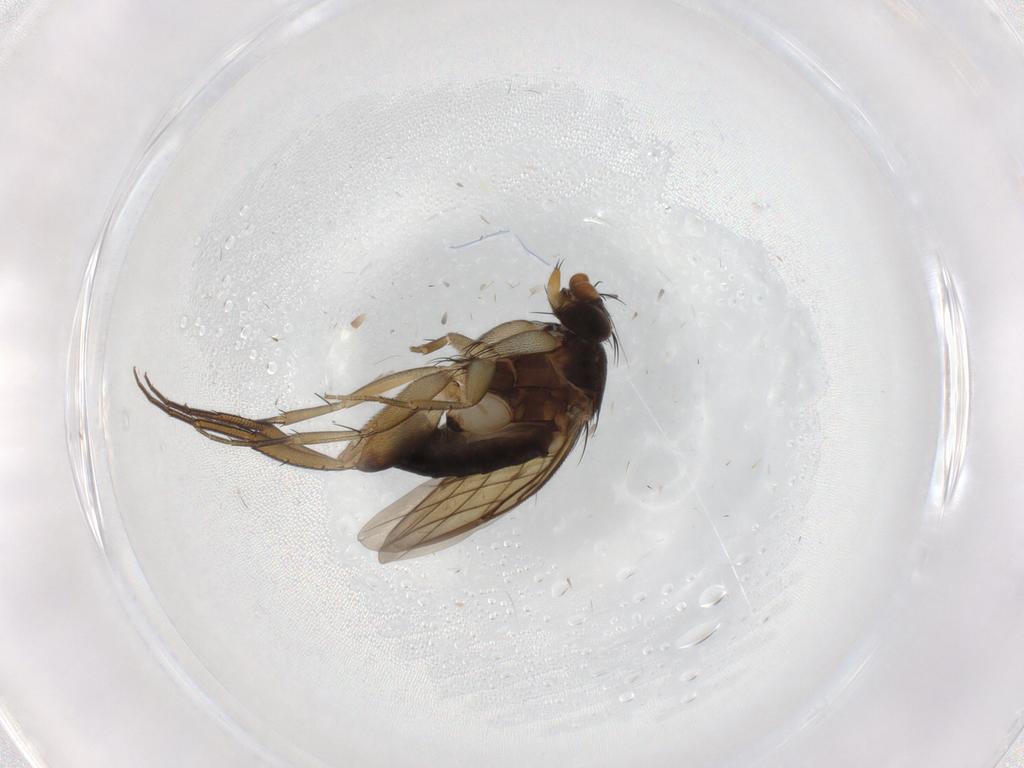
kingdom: Animalia
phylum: Arthropoda
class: Insecta
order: Diptera
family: Phoridae
